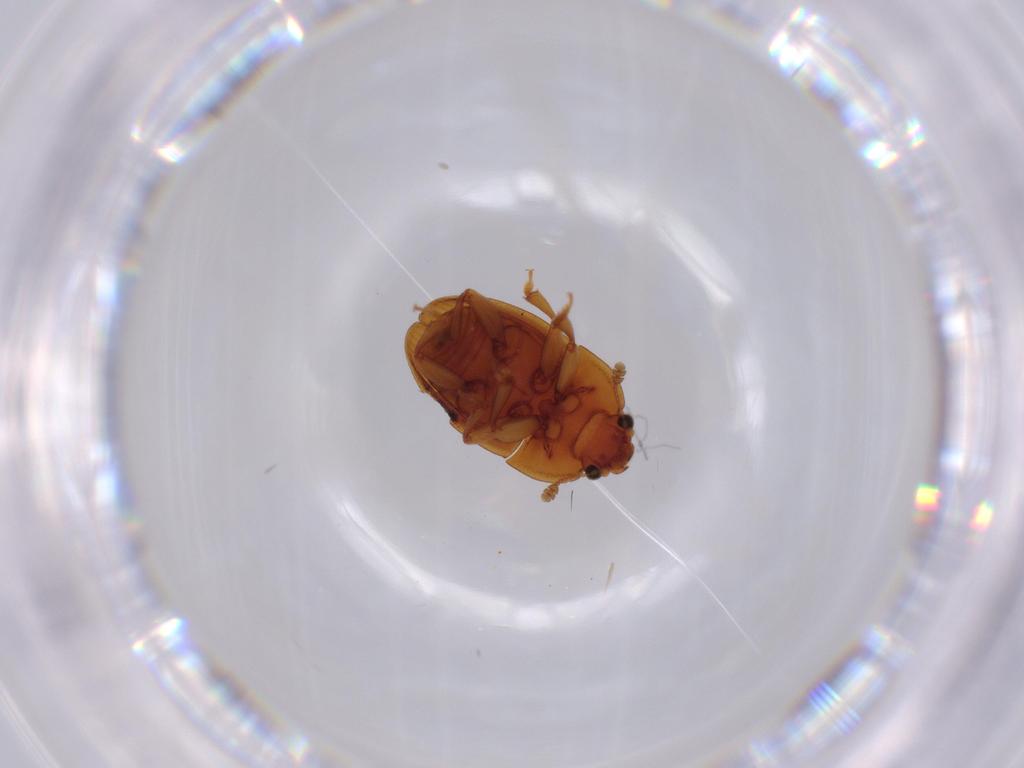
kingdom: Animalia
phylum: Arthropoda
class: Insecta
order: Coleoptera
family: Nitidulidae
